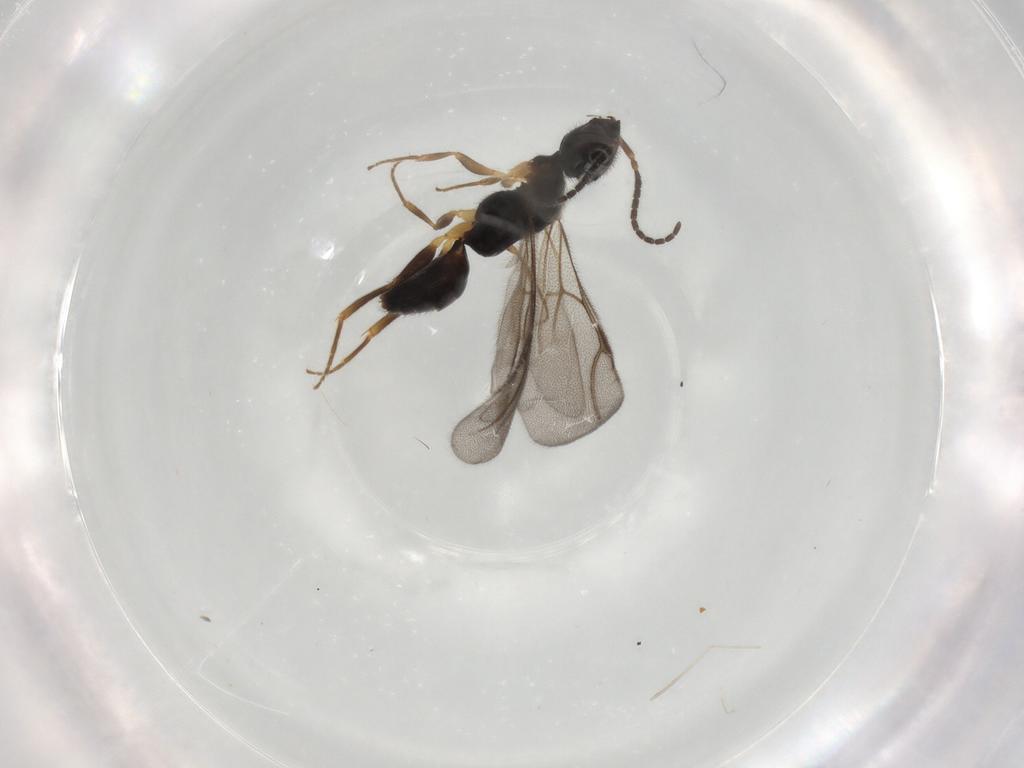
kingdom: Animalia
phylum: Arthropoda
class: Insecta
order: Hymenoptera
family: Bethylidae
